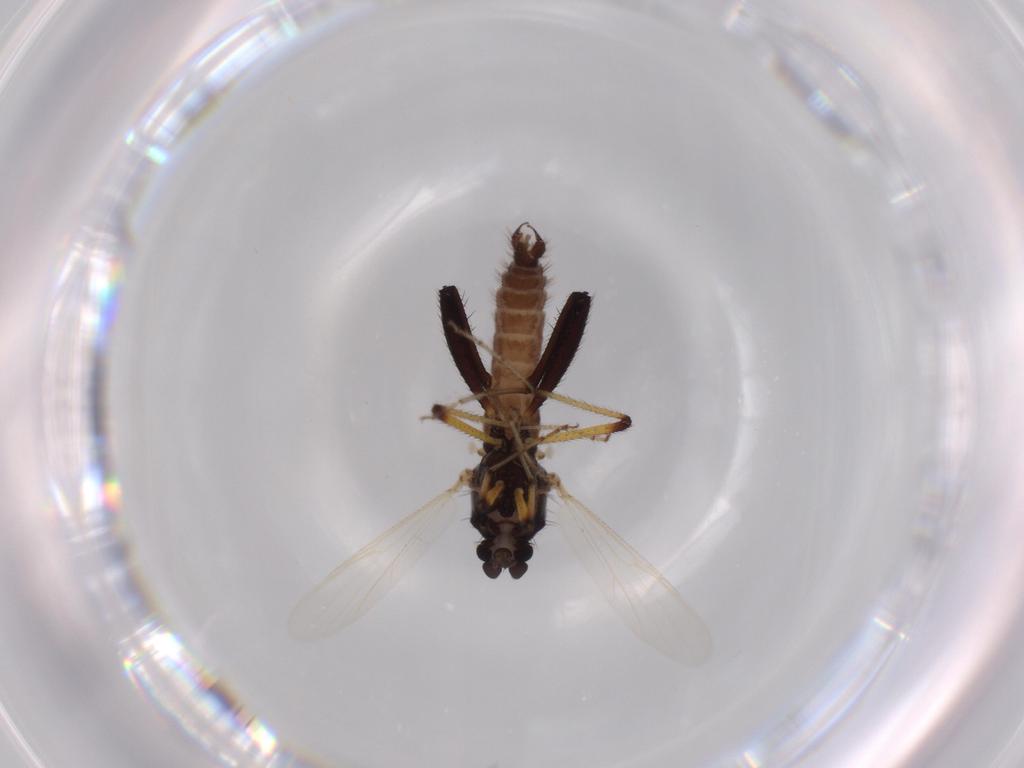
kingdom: Animalia
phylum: Arthropoda
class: Insecta
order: Diptera
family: Ceratopogonidae
